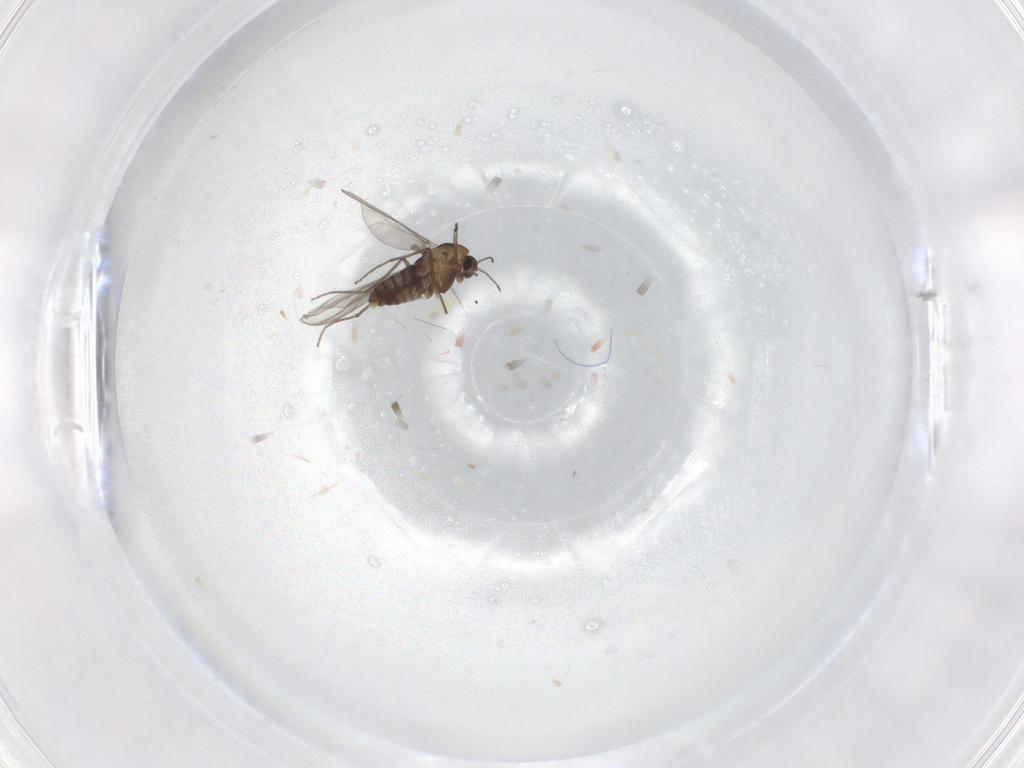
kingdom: Animalia
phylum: Arthropoda
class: Insecta
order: Diptera
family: Chironomidae
